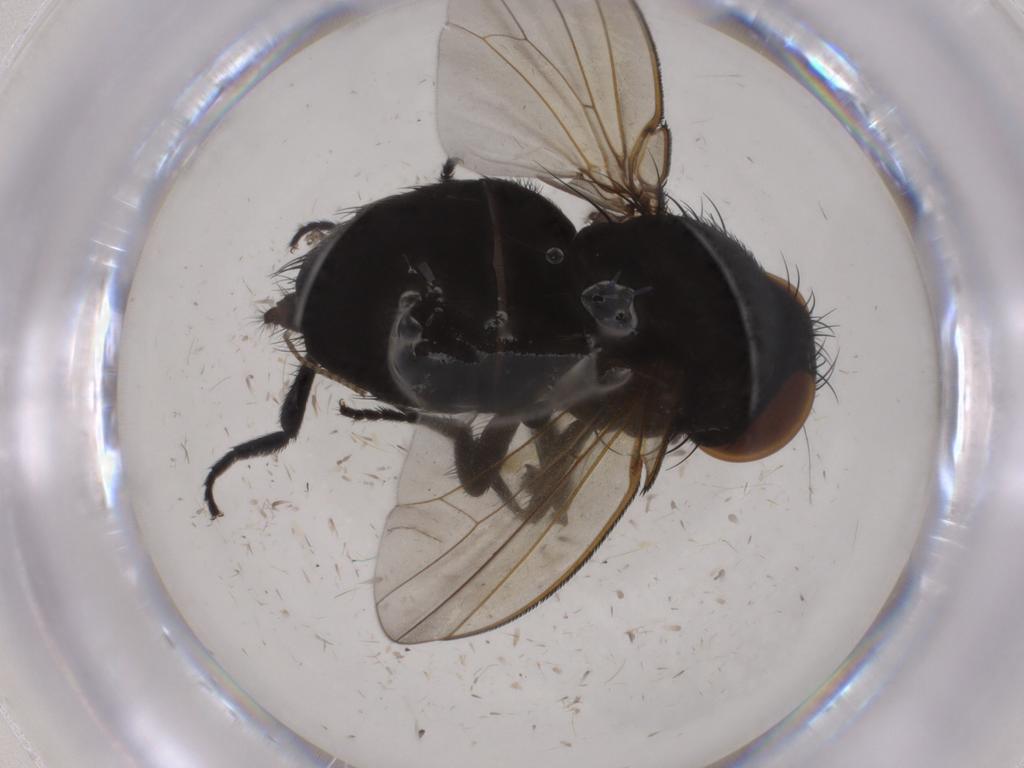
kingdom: Animalia
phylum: Arthropoda
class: Insecta
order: Diptera
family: Milichiidae
